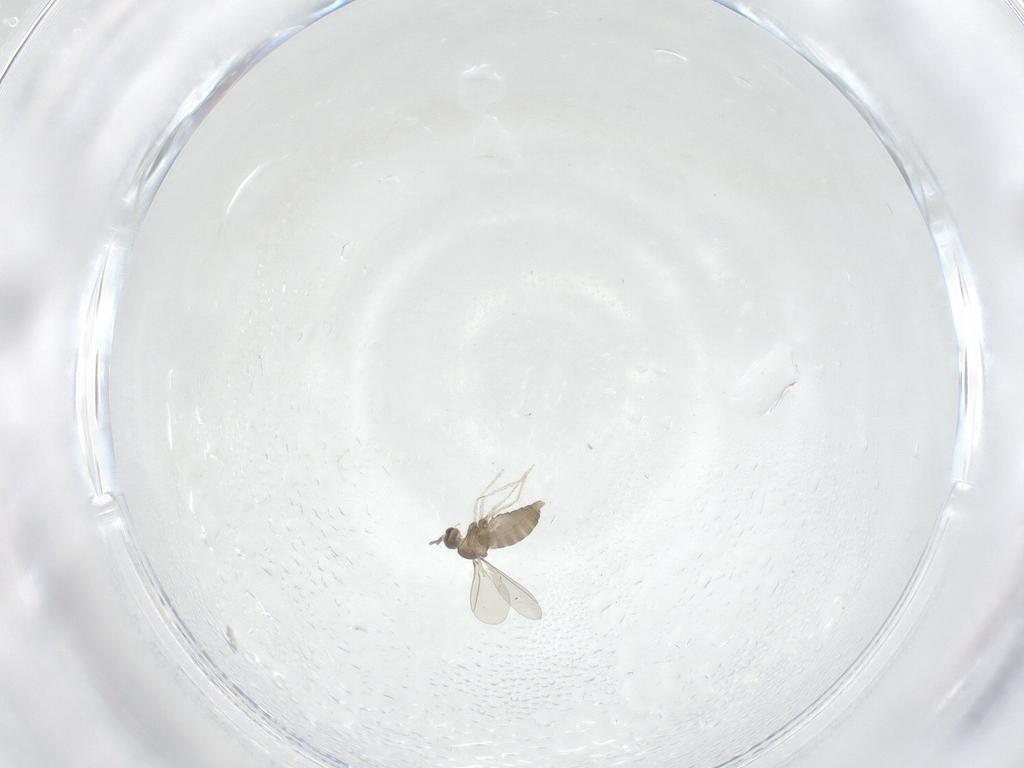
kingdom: Animalia
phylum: Arthropoda
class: Insecta
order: Diptera
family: Cecidomyiidae
